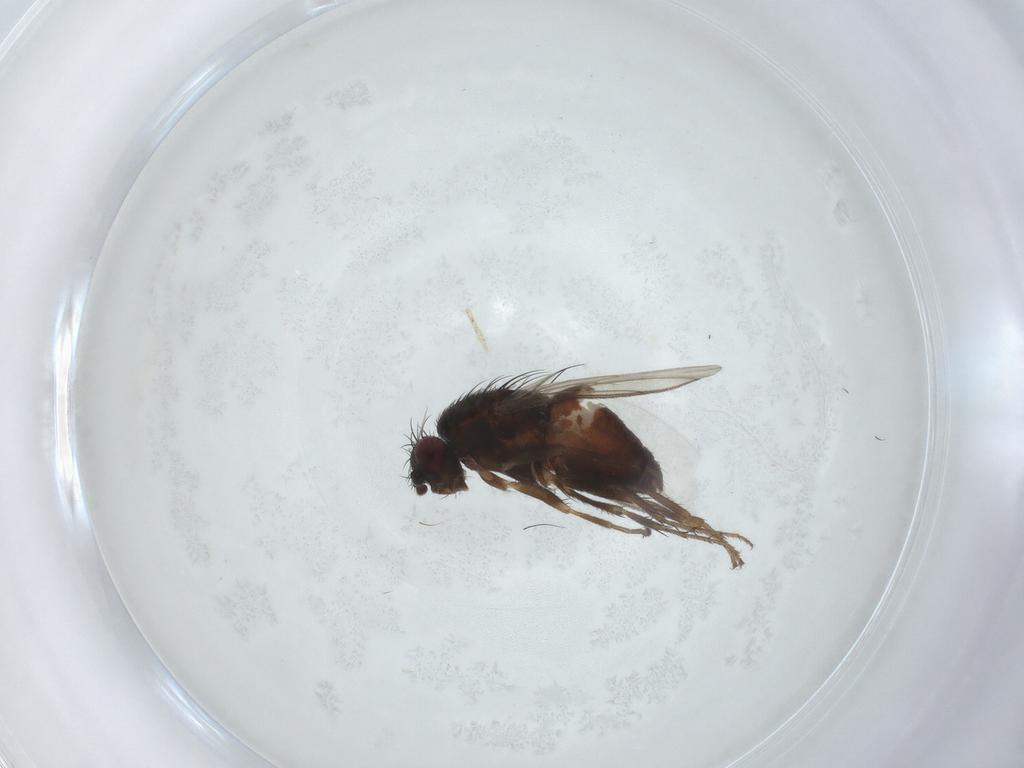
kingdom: Animalia
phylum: Arthropoda
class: Insecta
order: Diptera
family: Sphaeroceridae
